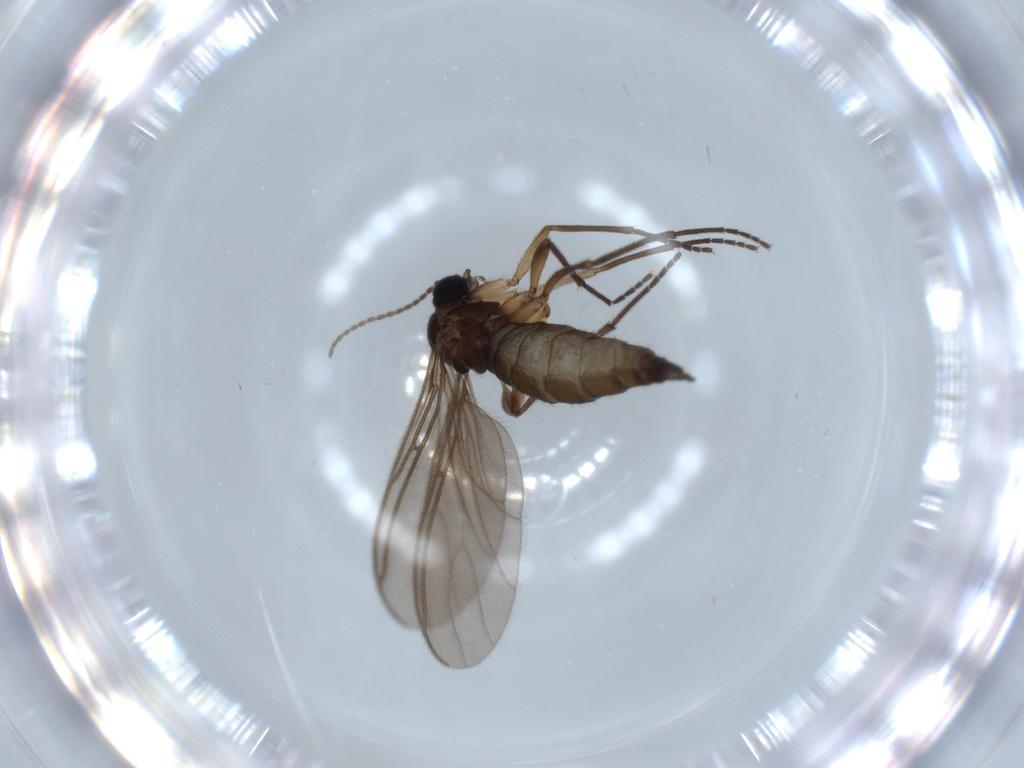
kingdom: Animalia
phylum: Arthropoda
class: Insecta
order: Diptera
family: Sciaridae
